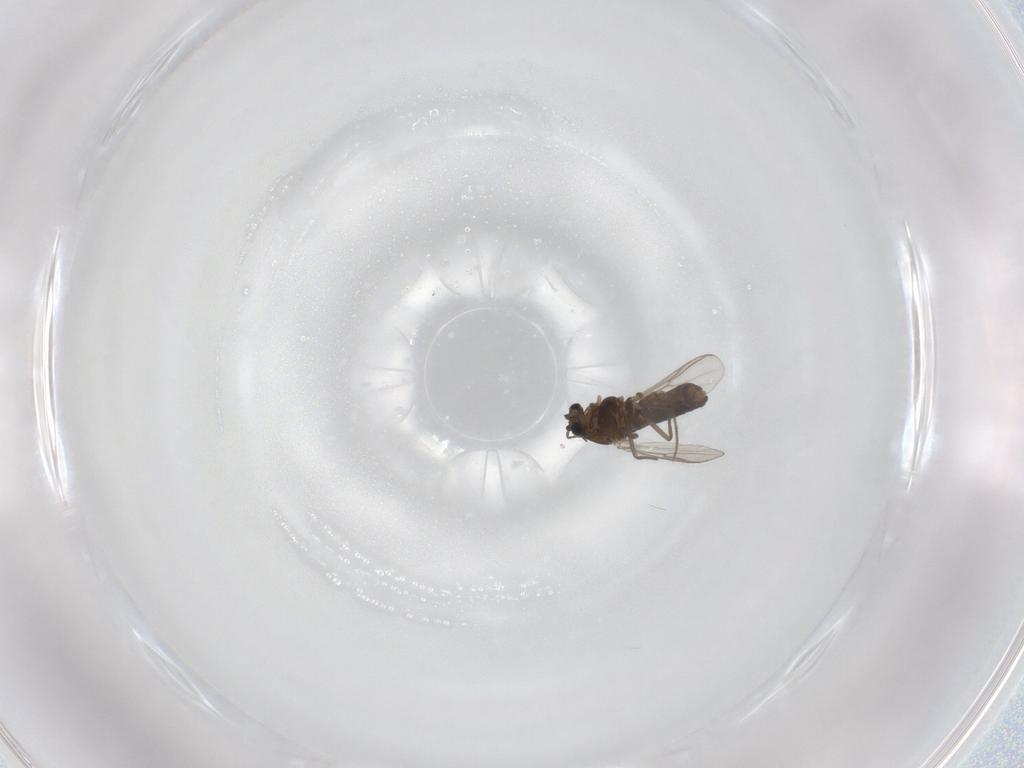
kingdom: Animalia
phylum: Arthropoda
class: Insecta
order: Diptera
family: Chironomidae
